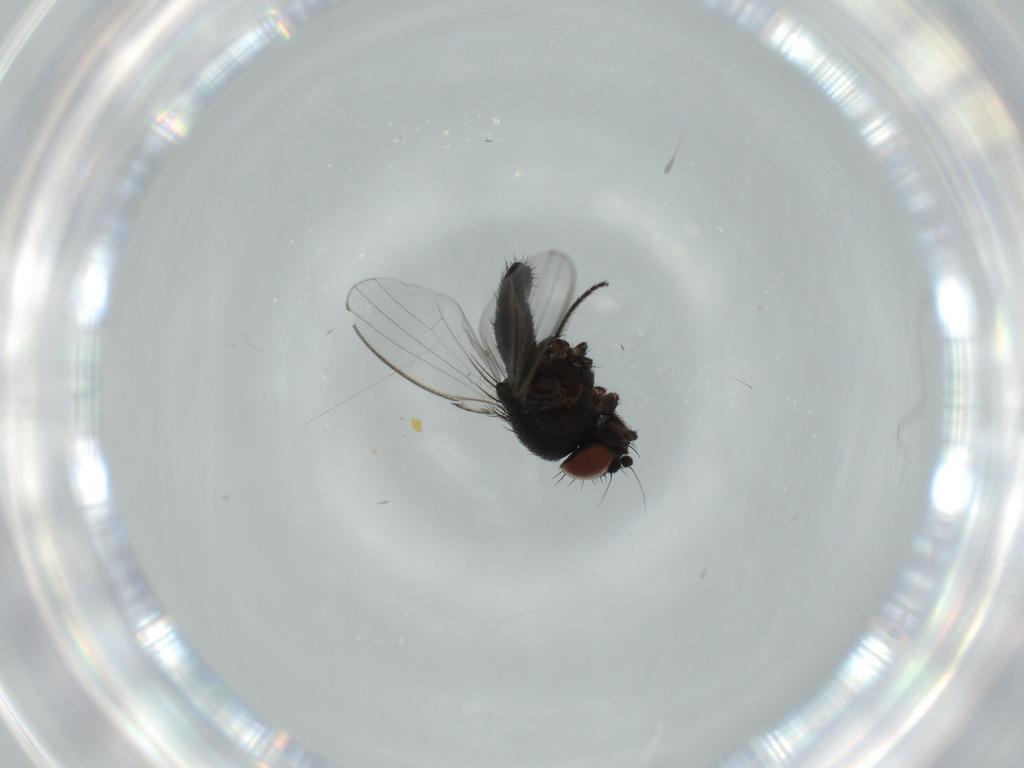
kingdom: Animalia
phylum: Arthropoda
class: Insecta
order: Diptera
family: Milichiidae
